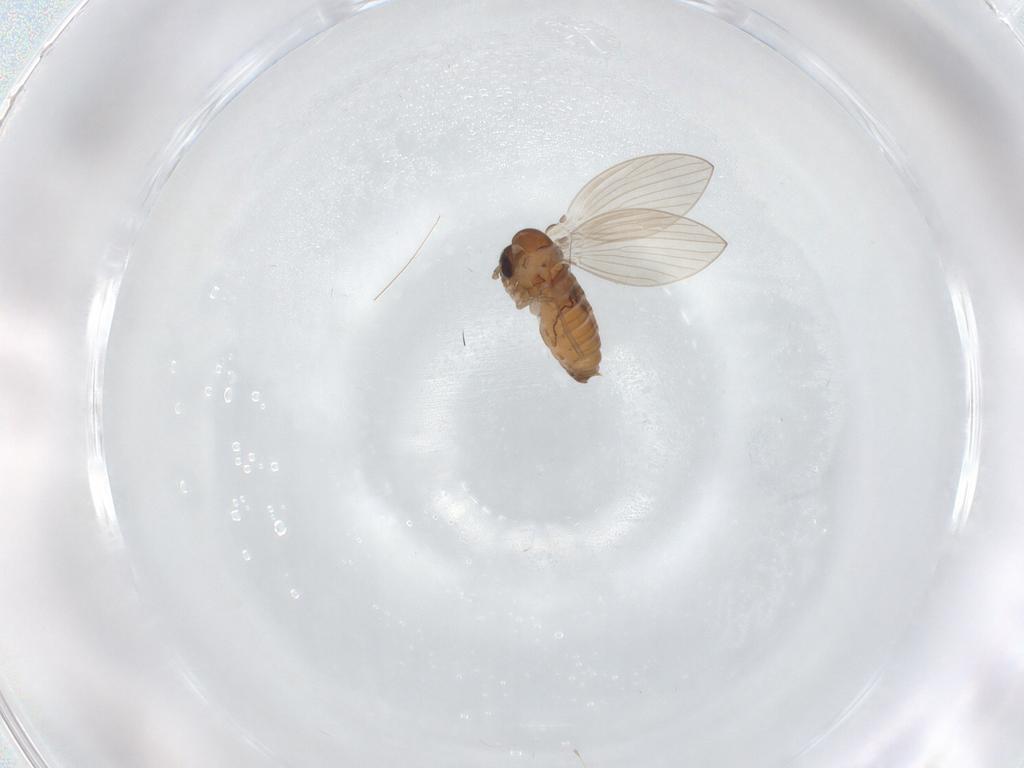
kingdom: Animalia
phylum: Arthropoda
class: Insecta
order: Diptera
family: Psychodidae
